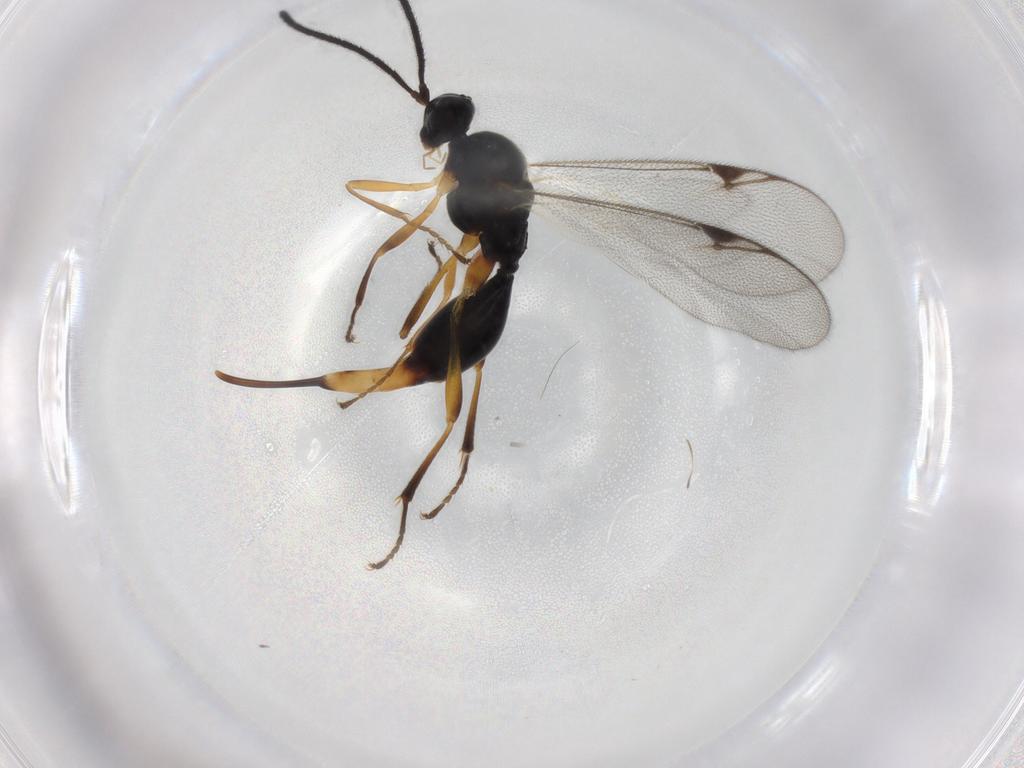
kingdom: Animalia
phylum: Arthropoda
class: Insecta
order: Hymenoptera
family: Proctotrupidae
